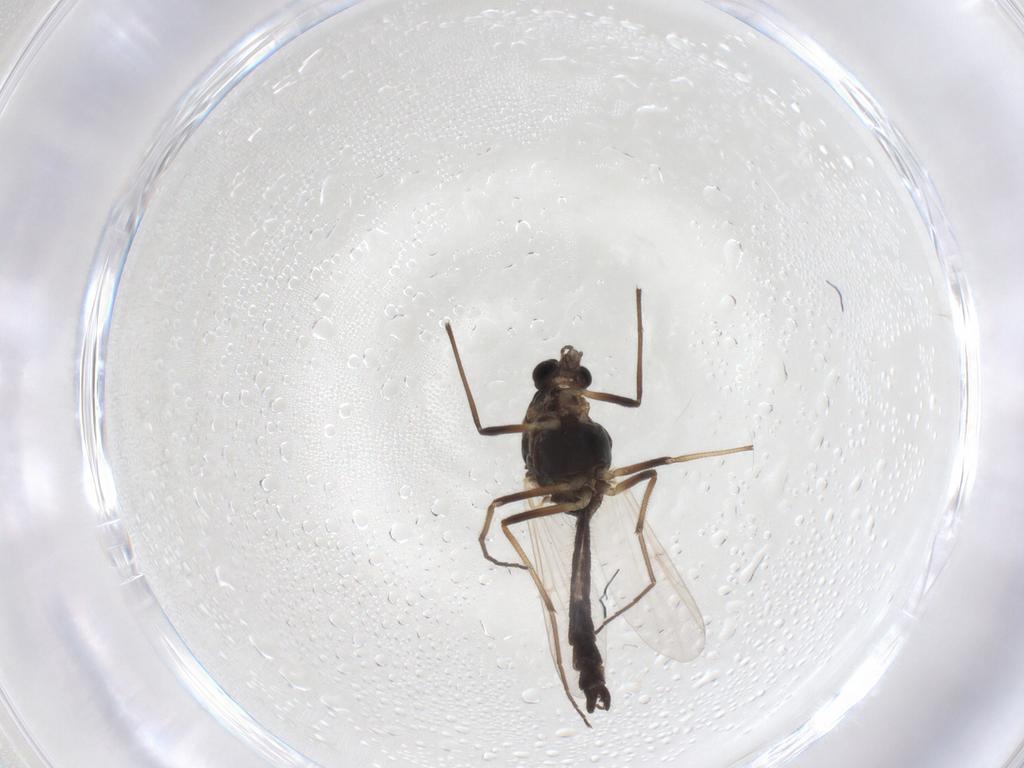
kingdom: Animalia
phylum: Arthropoda
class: Insecta
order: Diptera
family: Chironomidae
